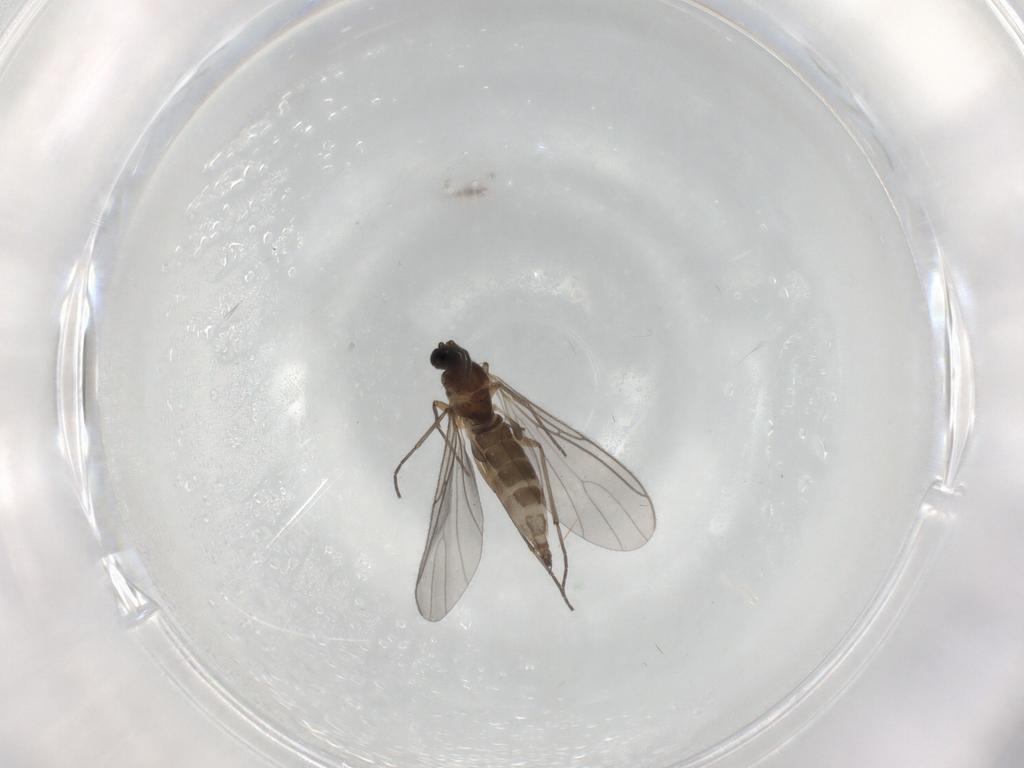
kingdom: Animalia
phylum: Arthropoda
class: Insecta
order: Diptera
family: Sciaridae
